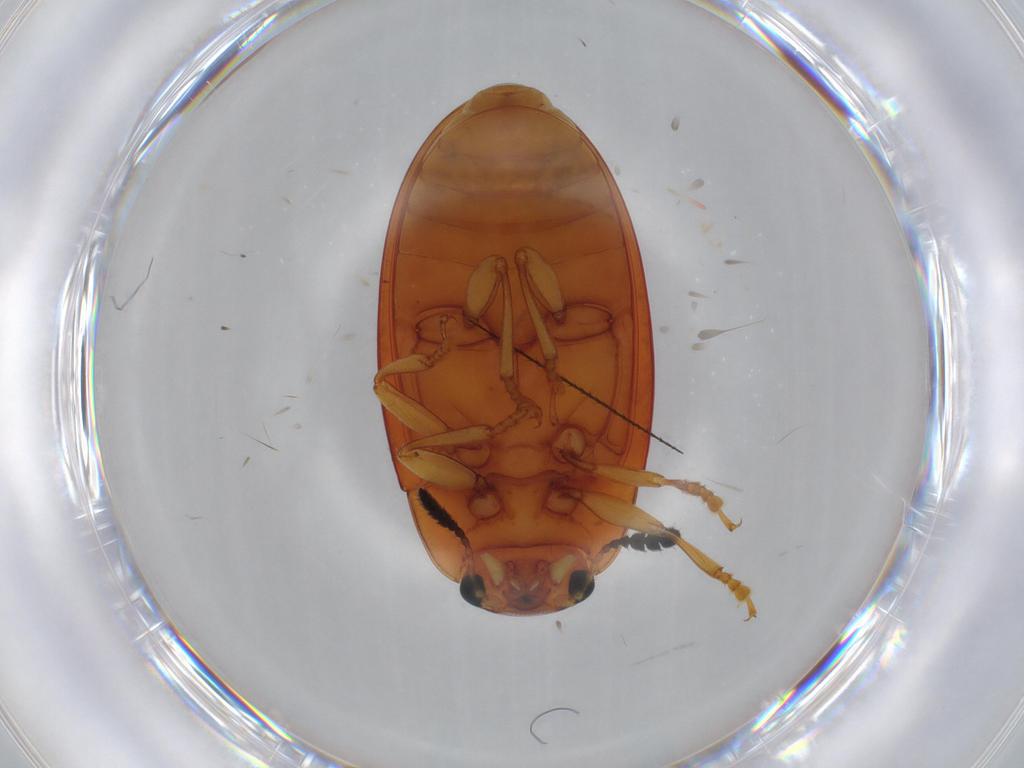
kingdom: Animalia
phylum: Arthropoda
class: Insecta
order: Coleoptera
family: Erotylidae
